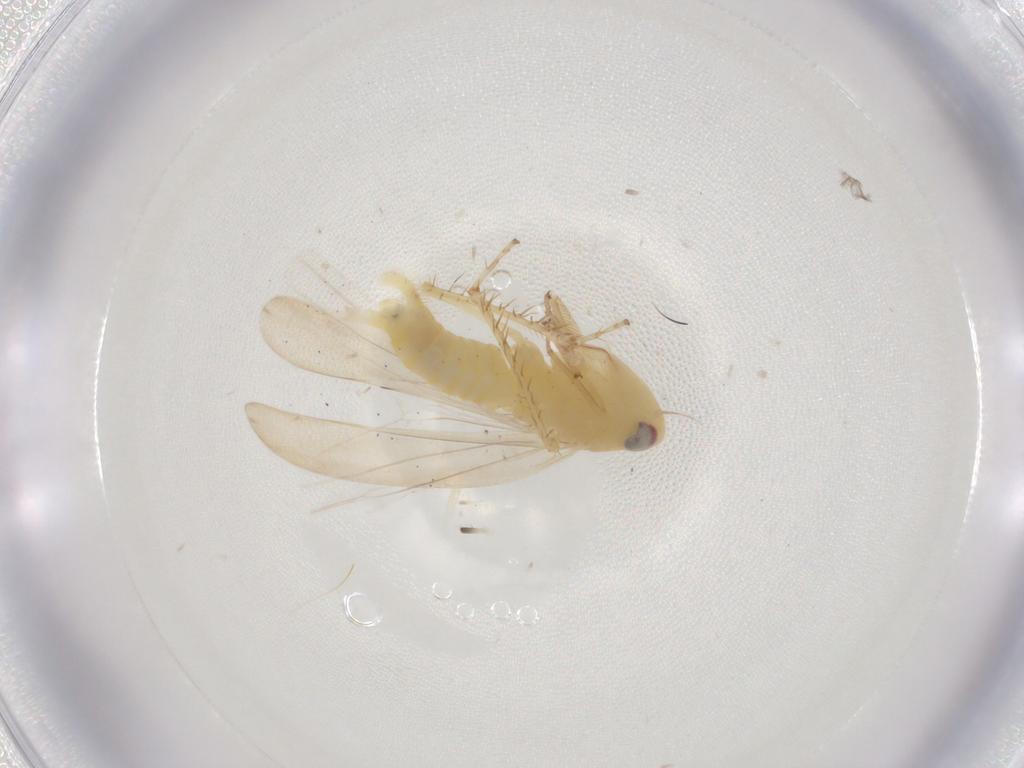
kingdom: Animalia
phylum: Arthropoda
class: Insecta
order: Hemiptera
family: Cicadellidae
